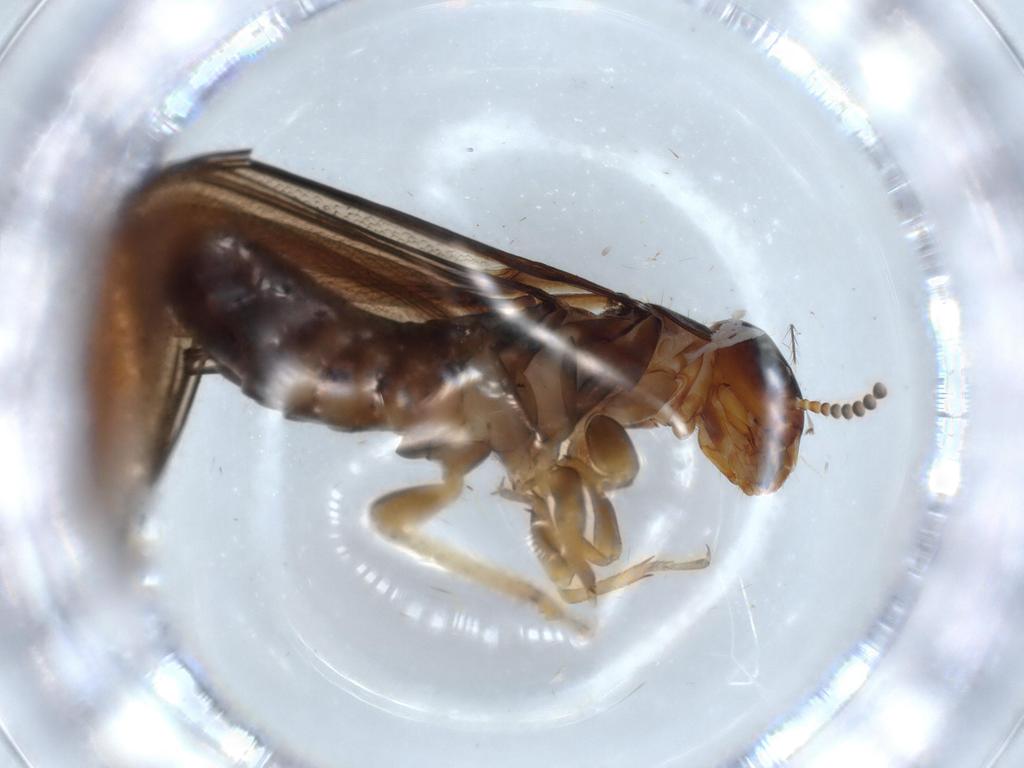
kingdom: Animalia
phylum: Arthropoda
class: Insecta
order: Blattodea
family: Kalotermitidae
